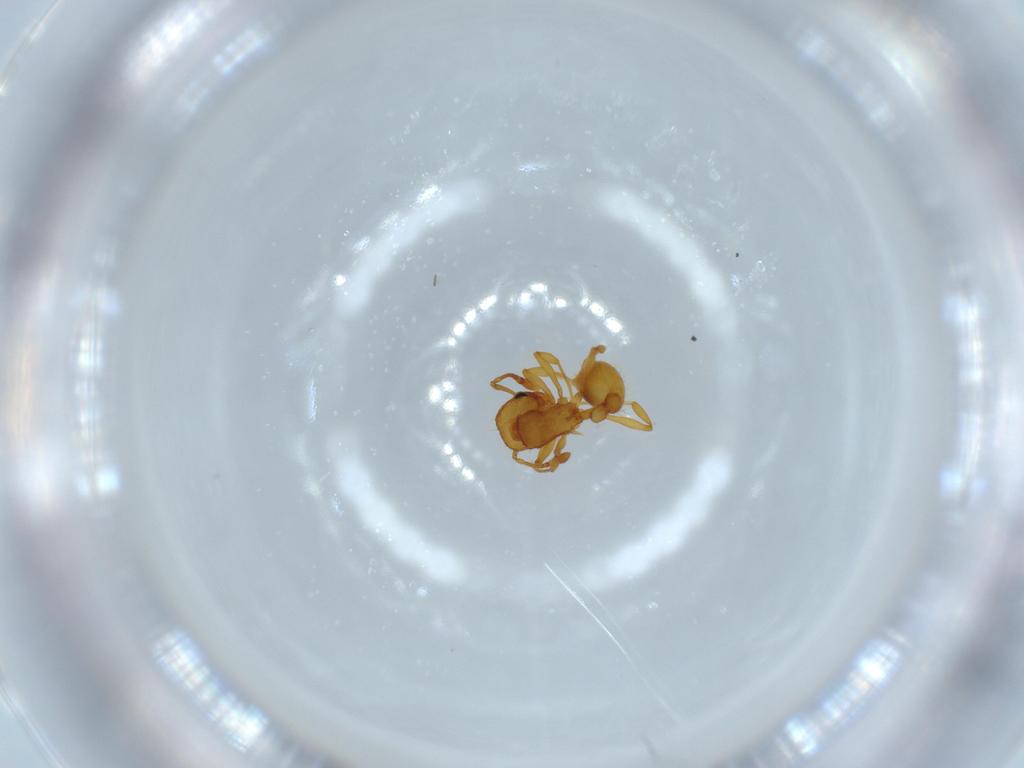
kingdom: Animalia
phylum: Arthropoda
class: Insecta
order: Hymenoptera
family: Formicidae
